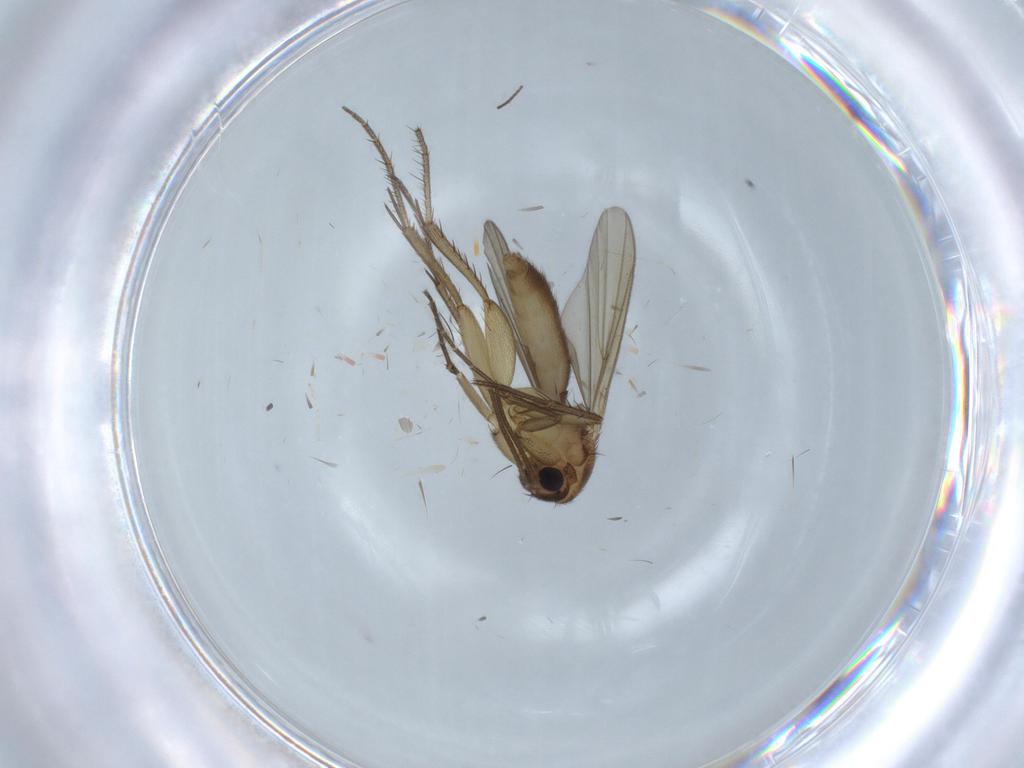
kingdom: Animalia
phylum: Arthropoda
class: Insecta
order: Diptera
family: Mycetophilidae
